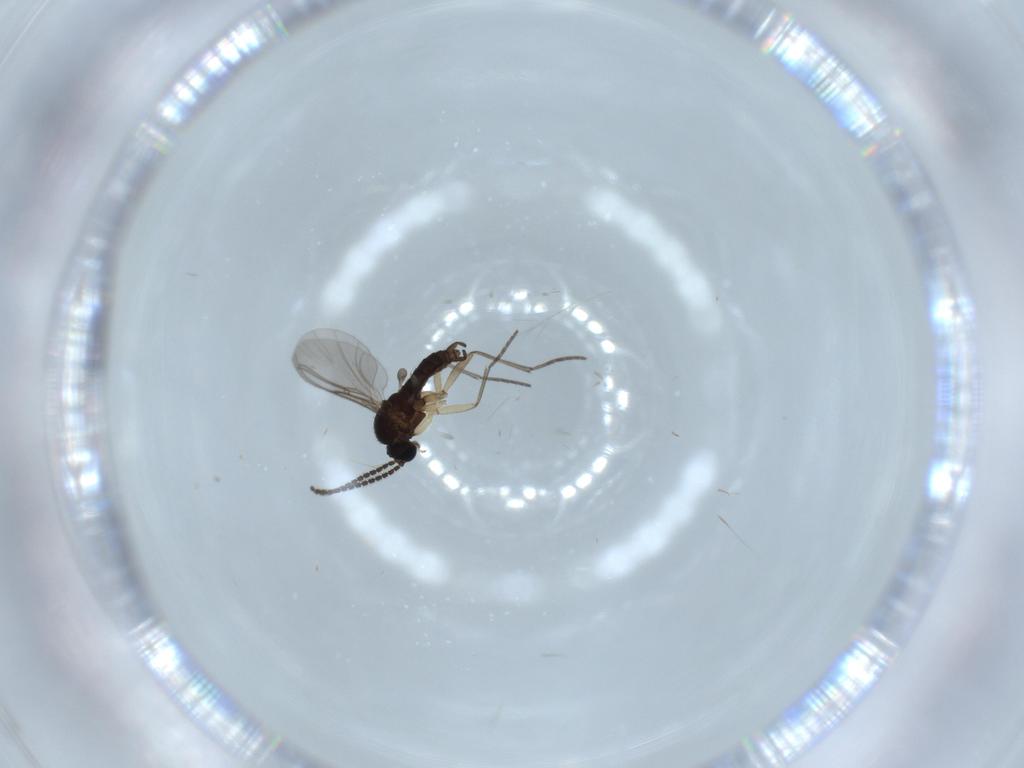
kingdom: Animalia
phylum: Arthropoda
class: Insecta
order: Diptera
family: Sciaridae
